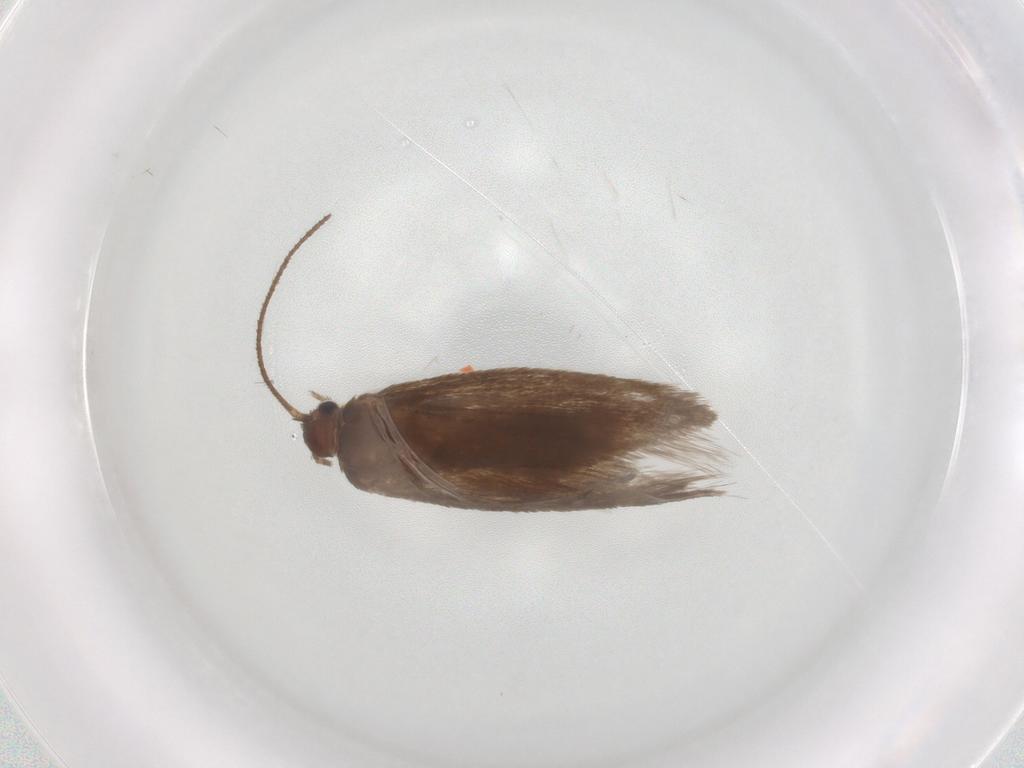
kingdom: Animalia
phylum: Arthropoda
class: Insecta
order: Lepidoptera
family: Limacodidae
